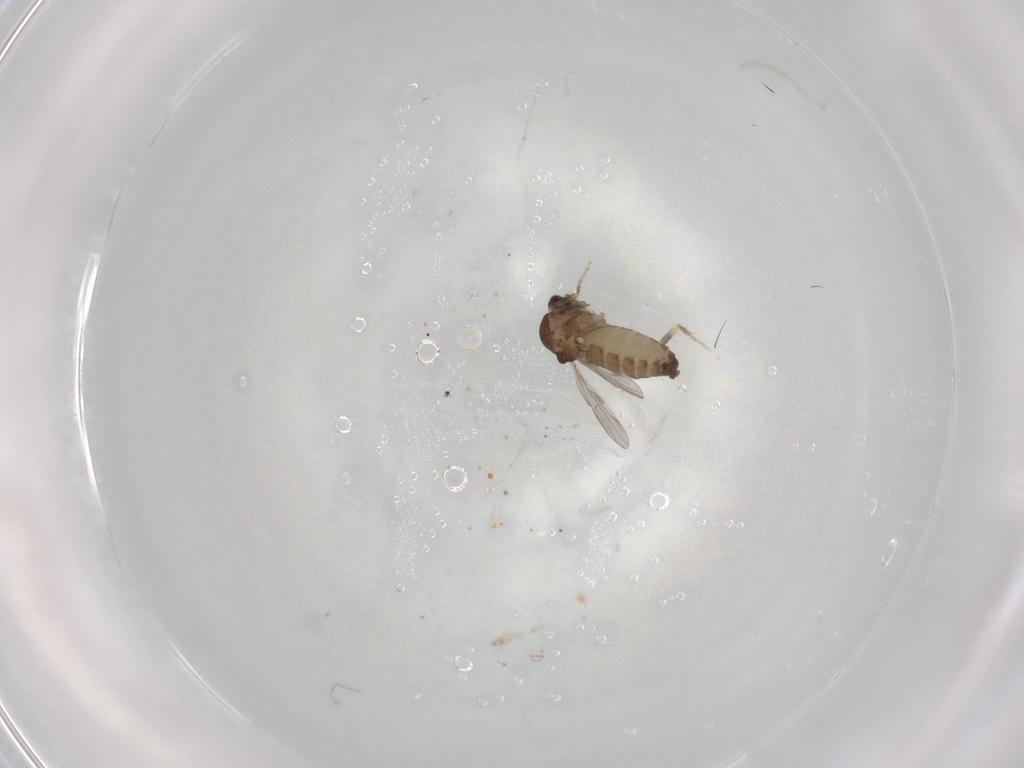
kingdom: Animalia
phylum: Arthropoda
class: Insecta
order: Diptera
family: Ceratopogonidae
